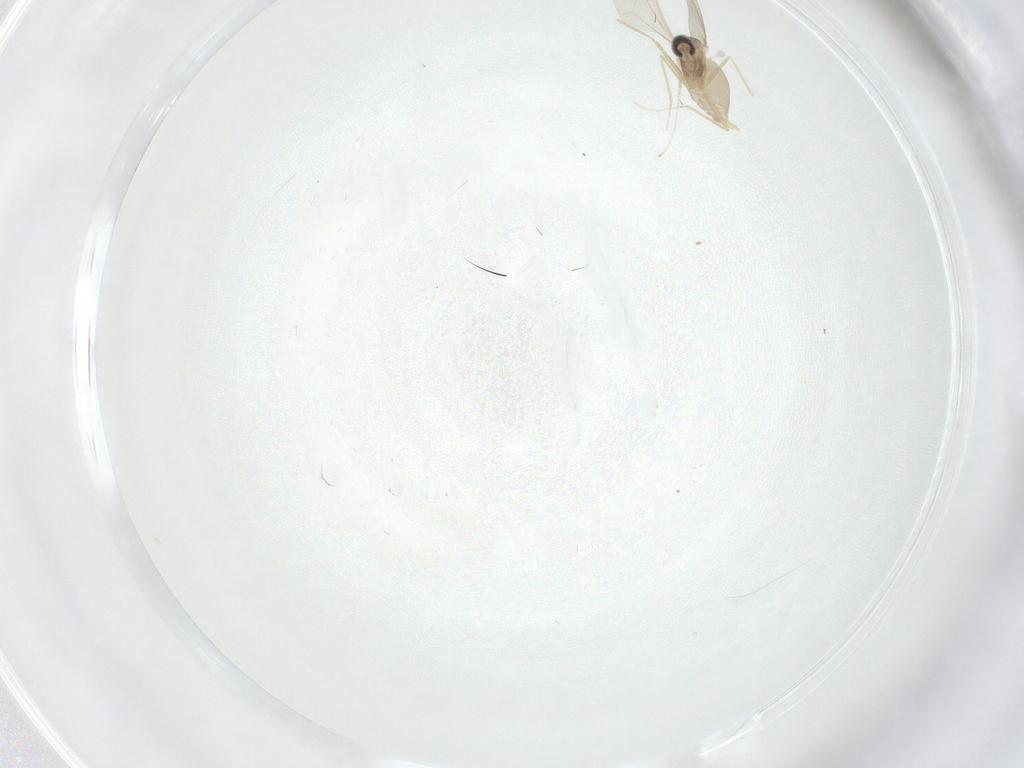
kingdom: Animalia
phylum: Arthropoda
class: Insecta
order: Diptera
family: Cecidomyiidae
